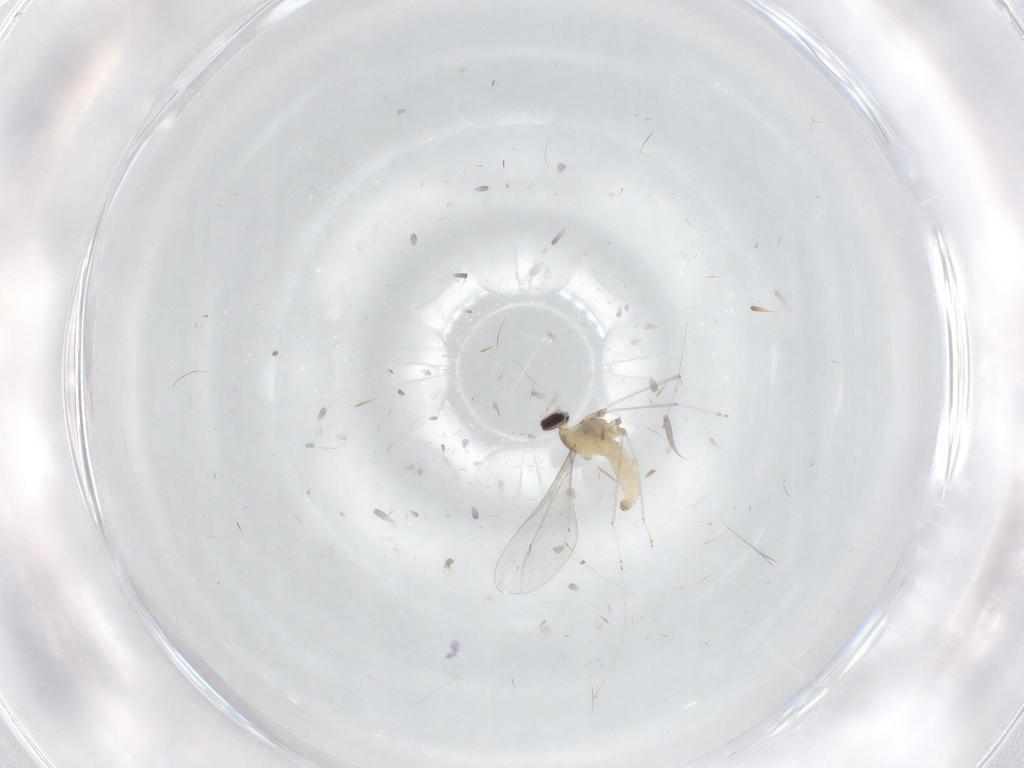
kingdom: Animalia
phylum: Arthropoda
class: Insecta
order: Diptera
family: Cecidomyiidae
